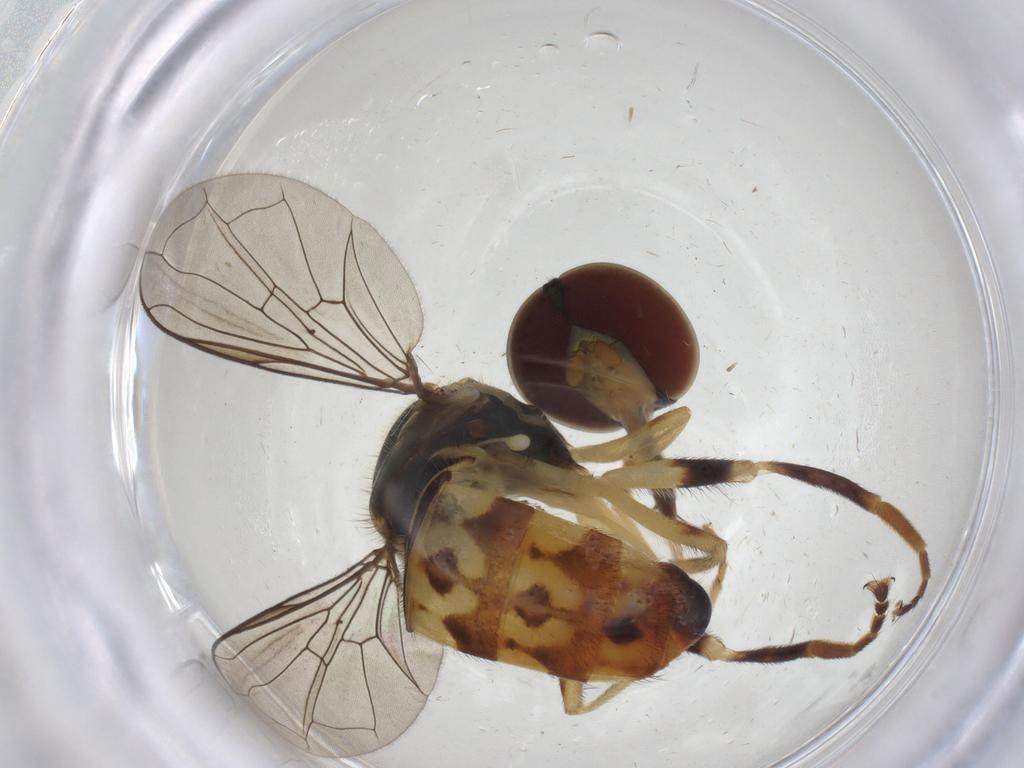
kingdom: Animalia
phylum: Arthropoda
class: Insecta
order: Diptera
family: Syrphidae
